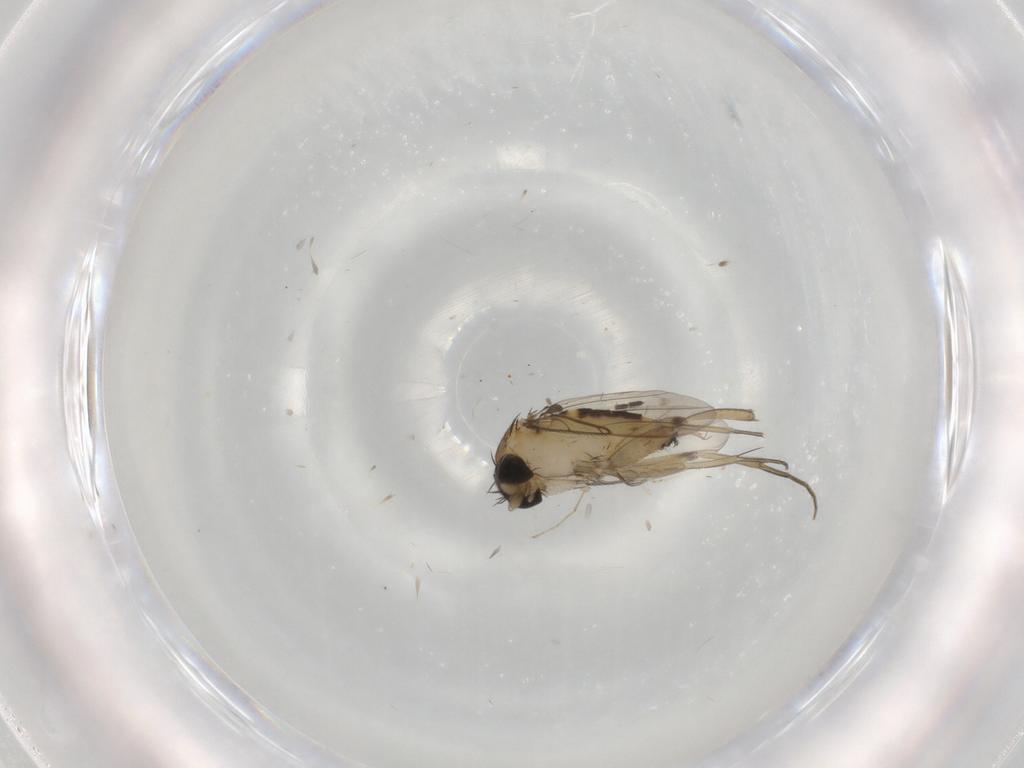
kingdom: Animalia
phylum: Arthropoda
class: Insecta
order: Diptera
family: Phoridae
